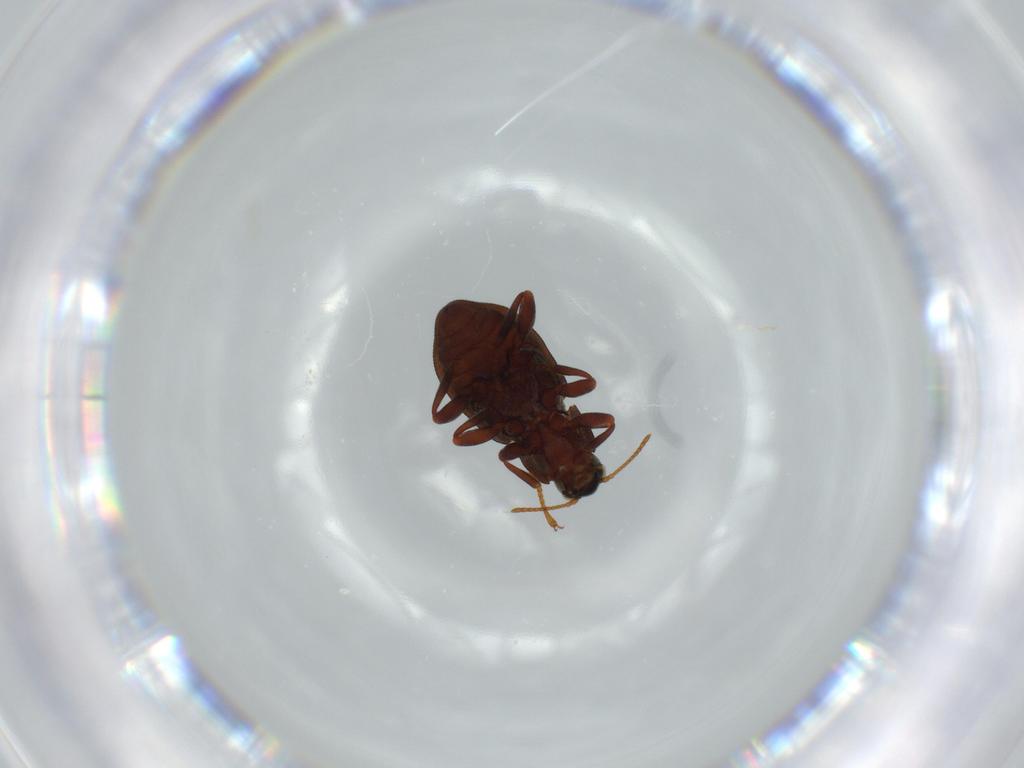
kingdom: Animalia
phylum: Arthropoda
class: Insecta
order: Coleoptera
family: Elmidae
